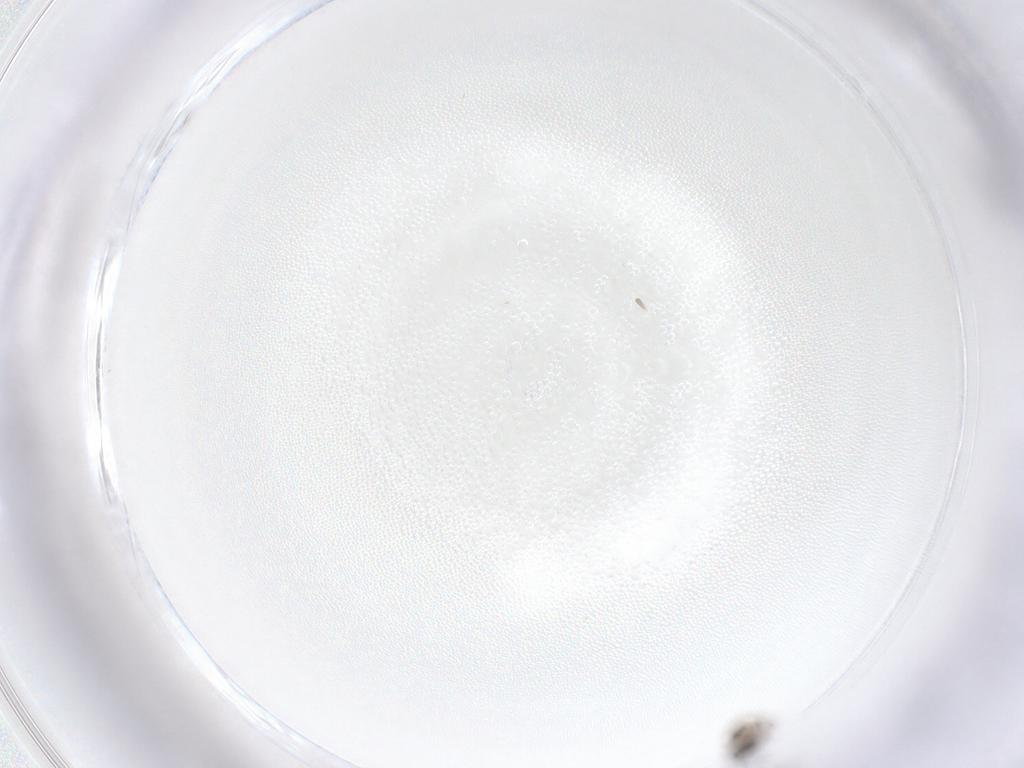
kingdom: Animalia
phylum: Arthropoda
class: Insecta
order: Diptera
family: Cecidomyiidae
